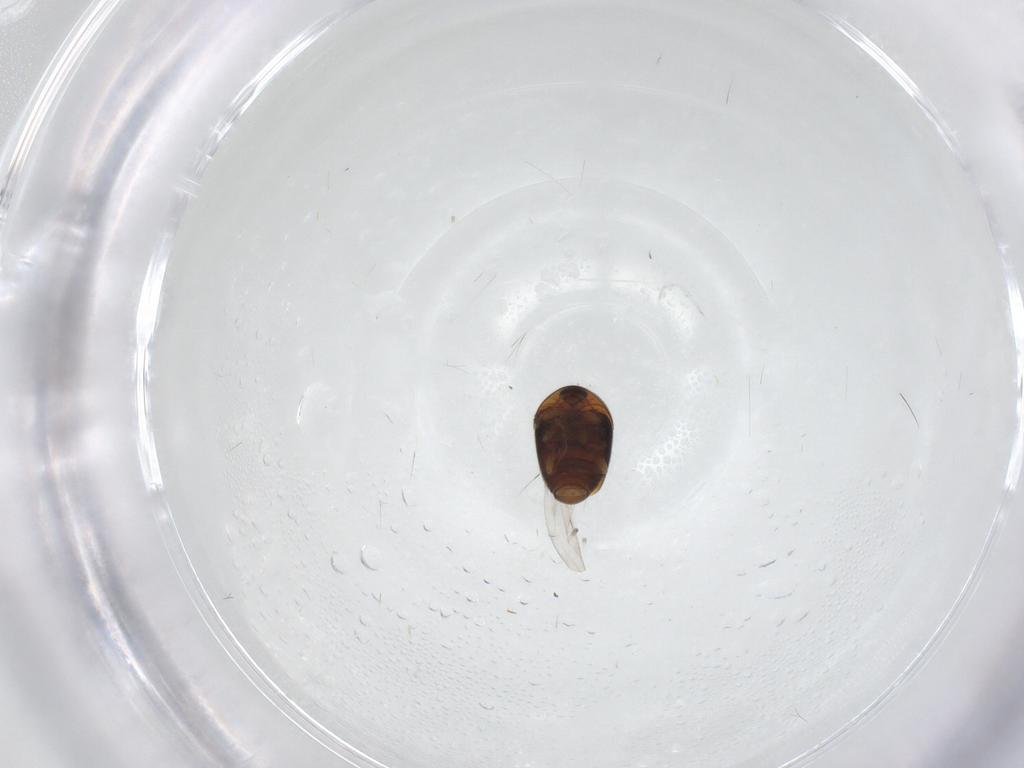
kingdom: Animalia
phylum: Arthropoda
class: Insecta
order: Coleoptera
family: Corylophidae
